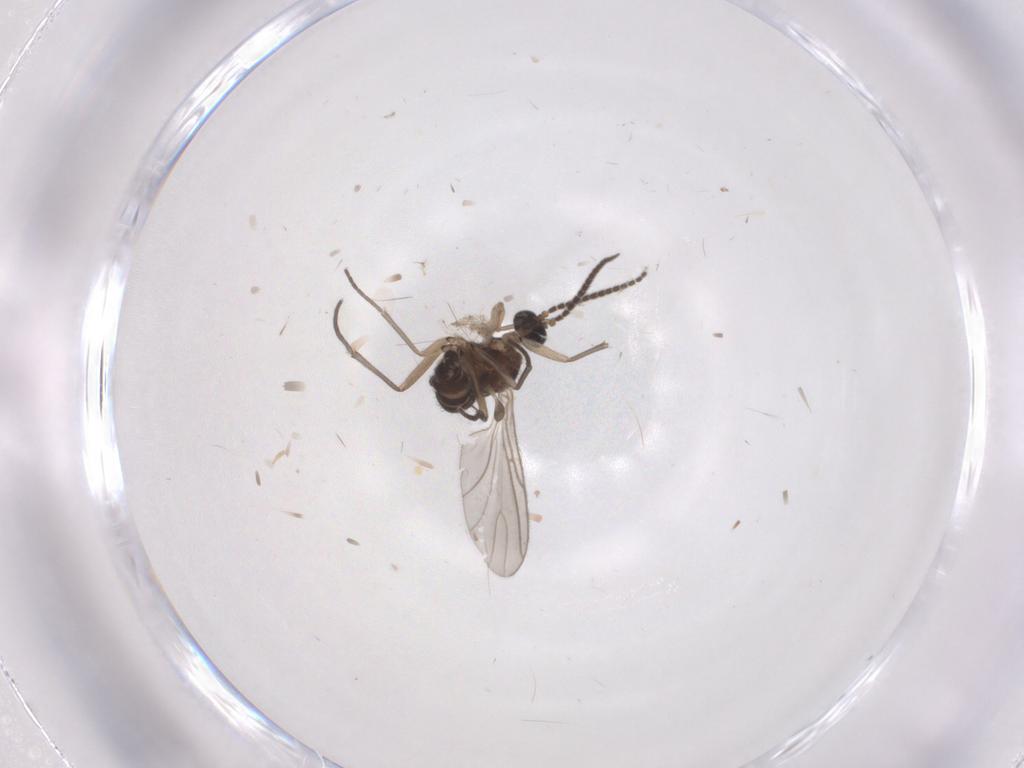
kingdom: Animalia
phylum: Arthropoda
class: Insecta
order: Diptera
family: Sciaridae
